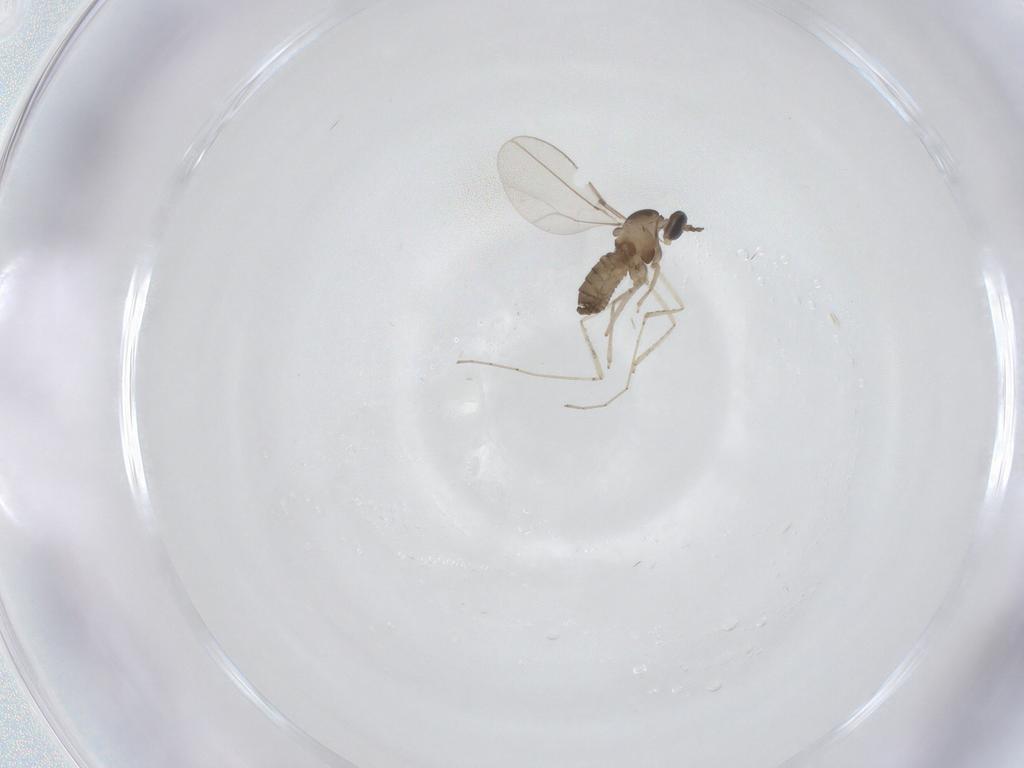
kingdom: Animalia
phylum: Arthropoda
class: Insecta
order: Diptera
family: Cecidomyiidae
